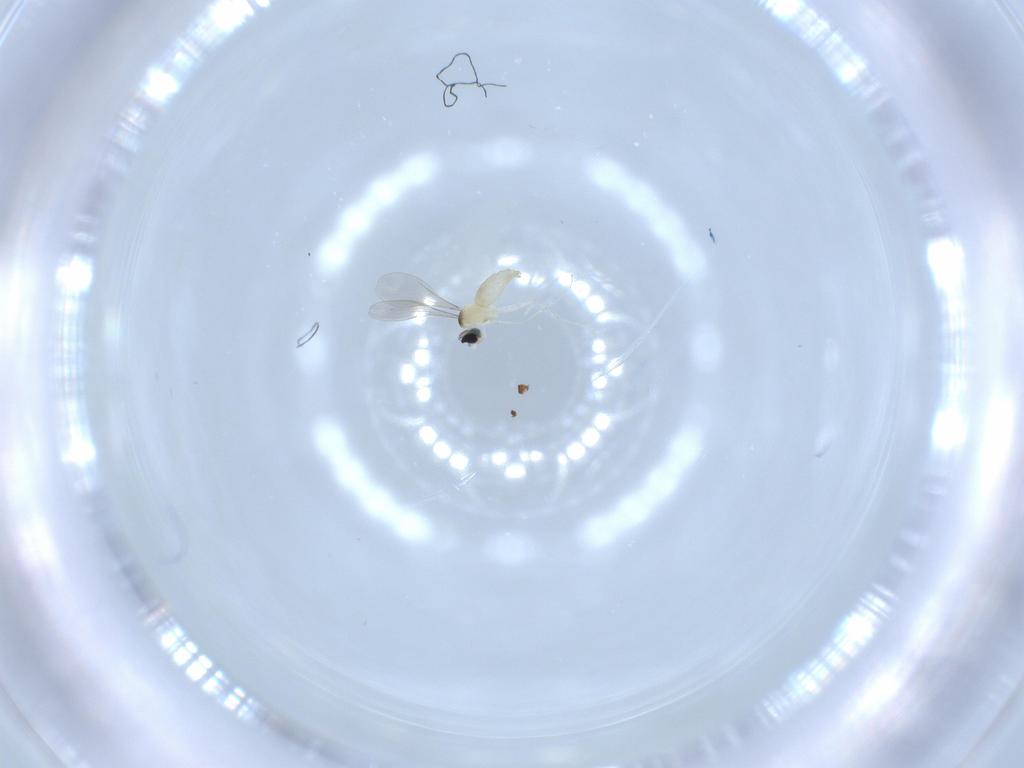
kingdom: Animalia
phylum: Arthropoda
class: Insecta
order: Diptera
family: Cecidomyiidae
